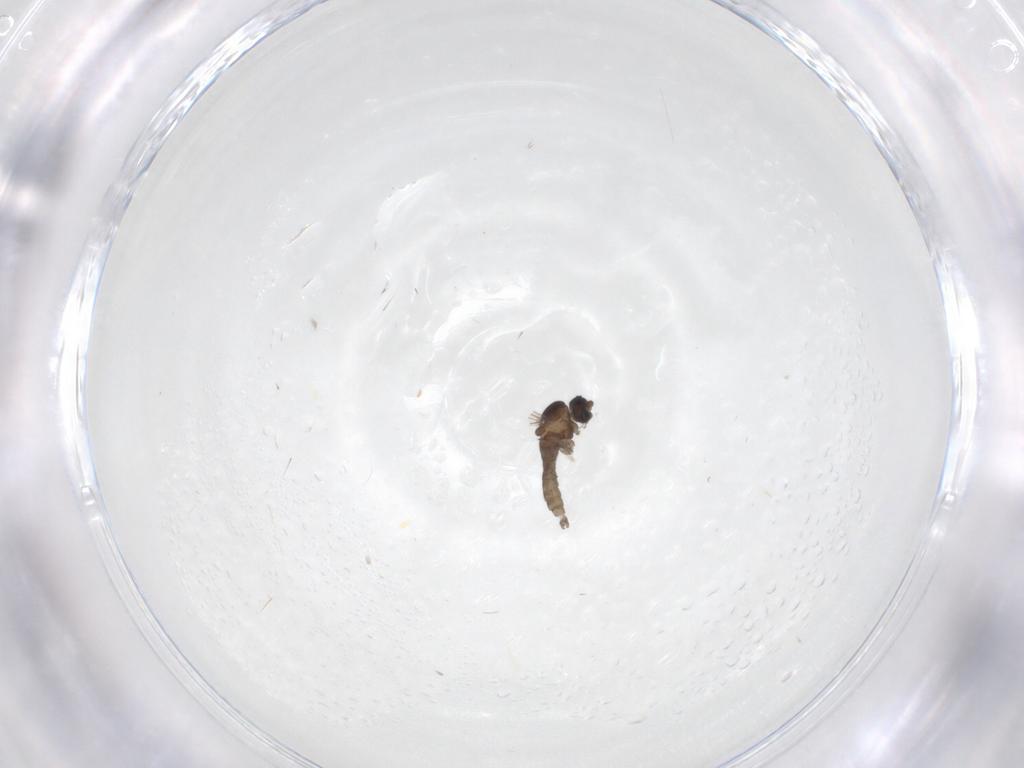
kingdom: Animalia
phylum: Arthropoda
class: Insecta
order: Diptera
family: Cecidomyiidae
